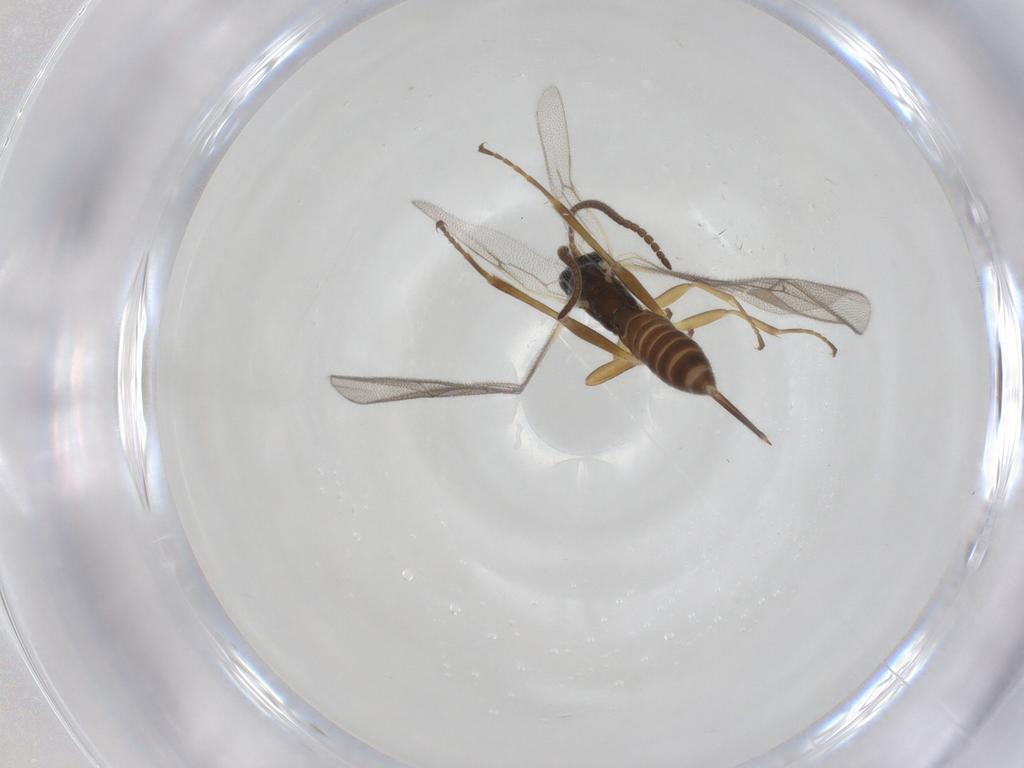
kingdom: Animalia
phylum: Arthropoda
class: Insecta
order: Hymenoptera
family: Ichneumonidae
